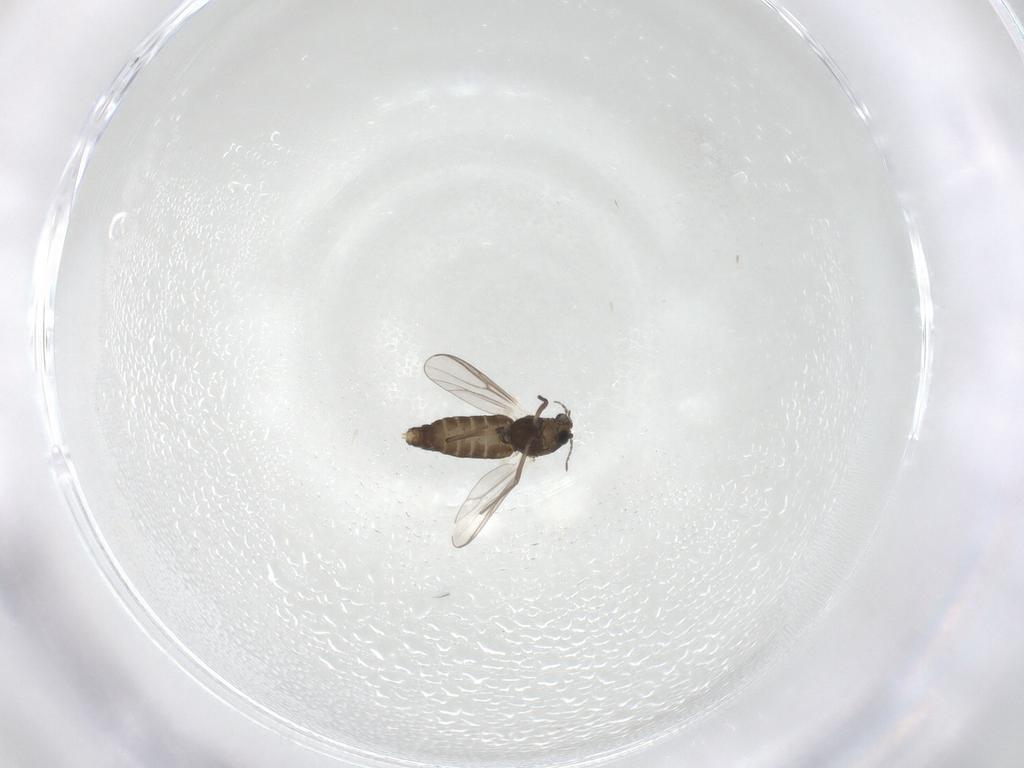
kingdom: Animalia
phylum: Arthropoda
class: Insecta
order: Diptera
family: Chironomidae
